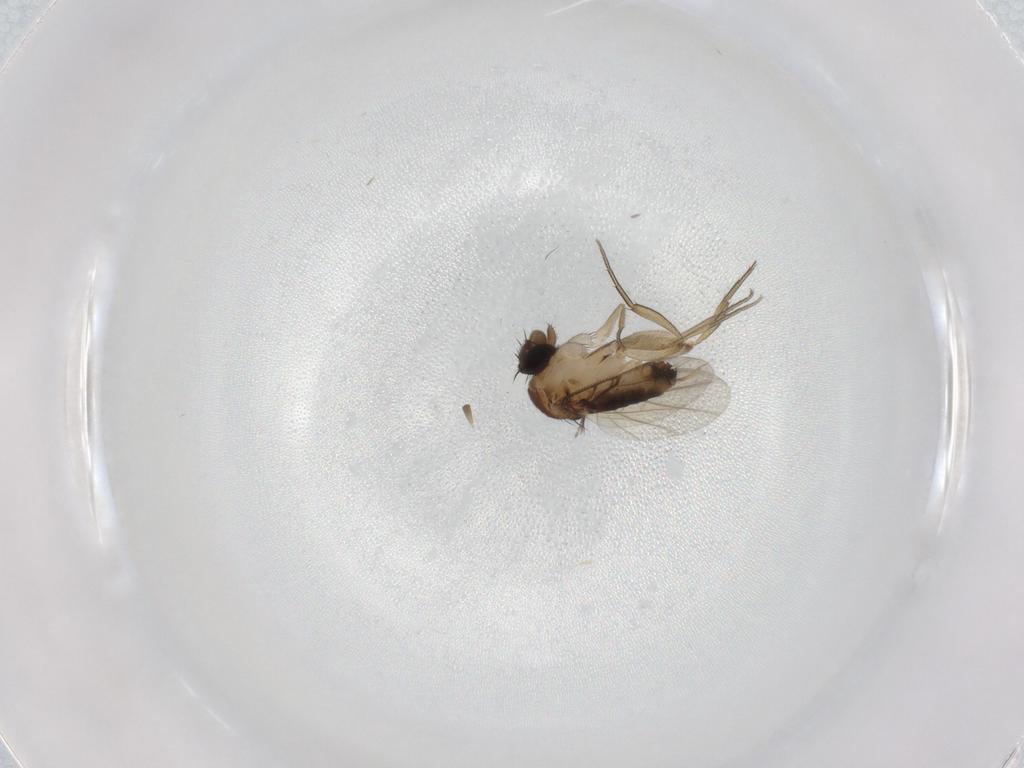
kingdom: Animalia
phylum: Arthropoda
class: Insecta
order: Diptera
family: Ceratopogonidae
